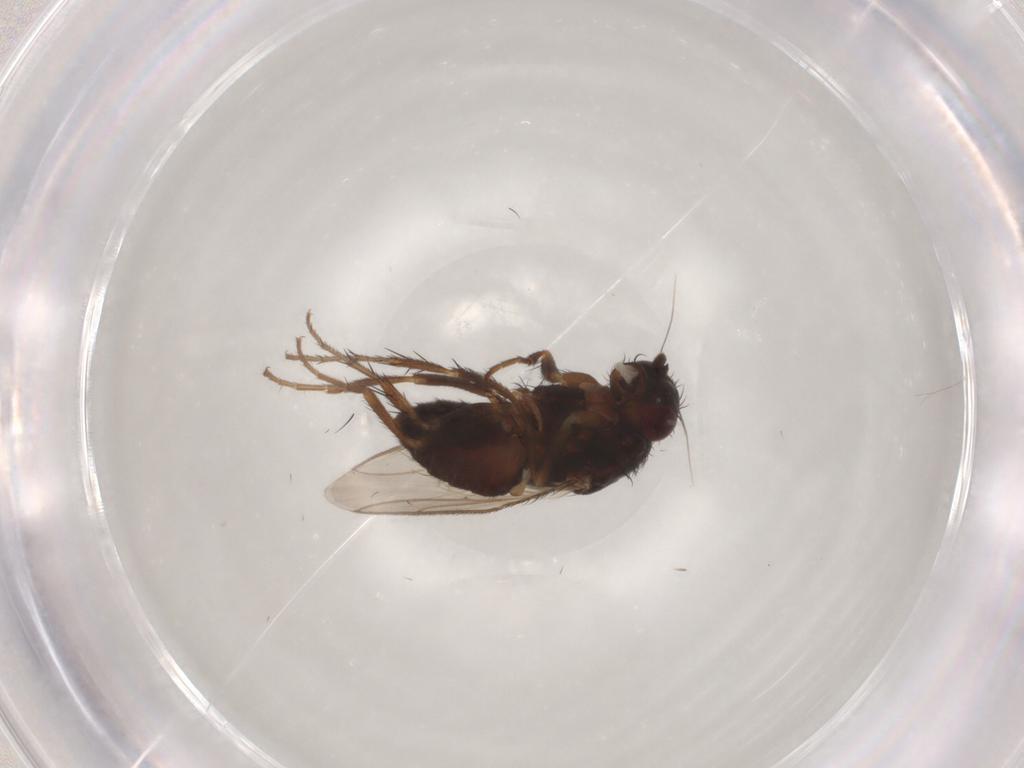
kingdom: Animalia
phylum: Arthropoda
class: Insecta
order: Diptera
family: Sphaeroceridae
